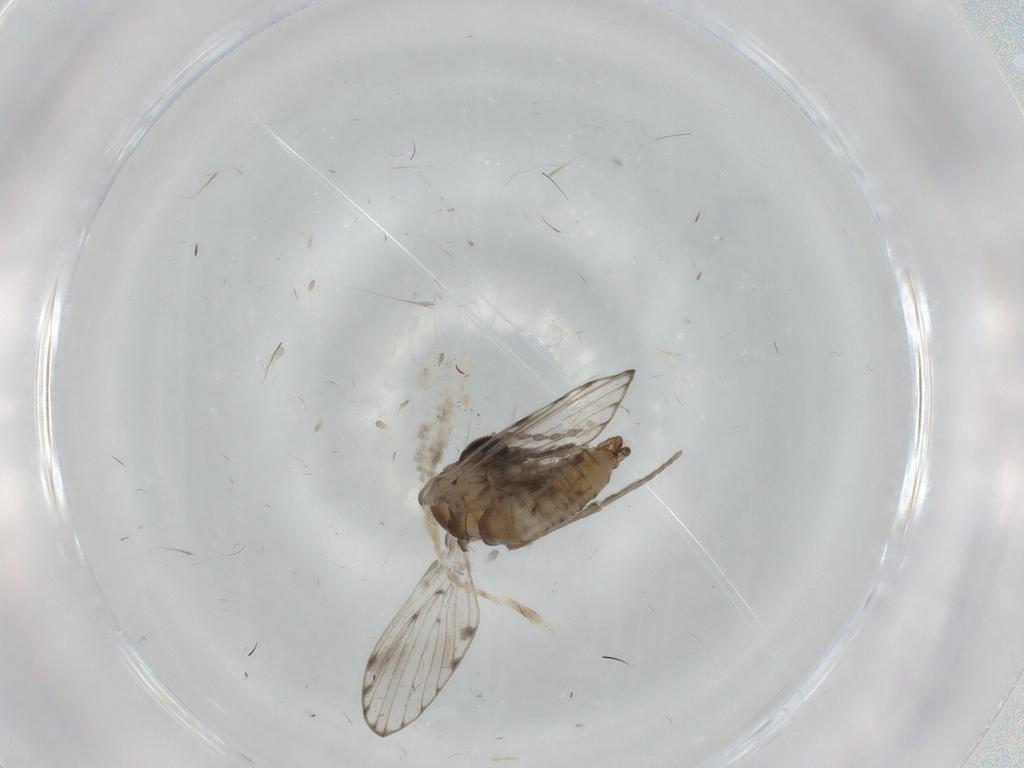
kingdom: Animalia
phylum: Arthropoda
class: Insecta
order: Diptera
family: Phoridae
